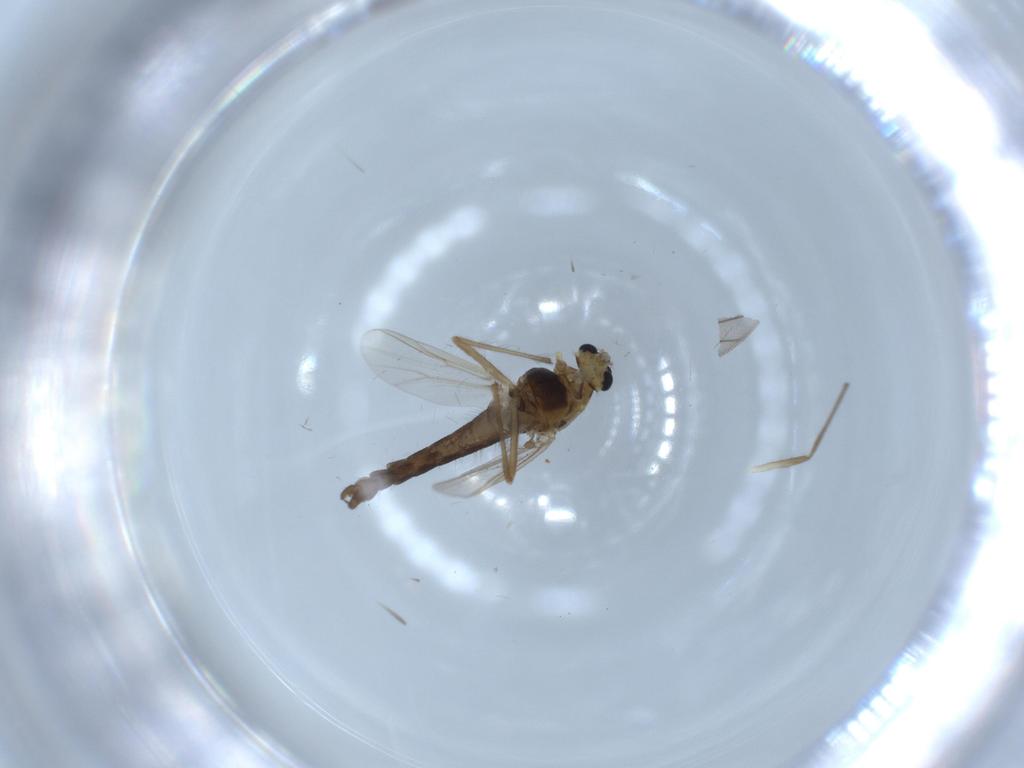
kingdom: Animalia
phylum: Arthropoda
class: Insecta
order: Diptera
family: Chironomidae
